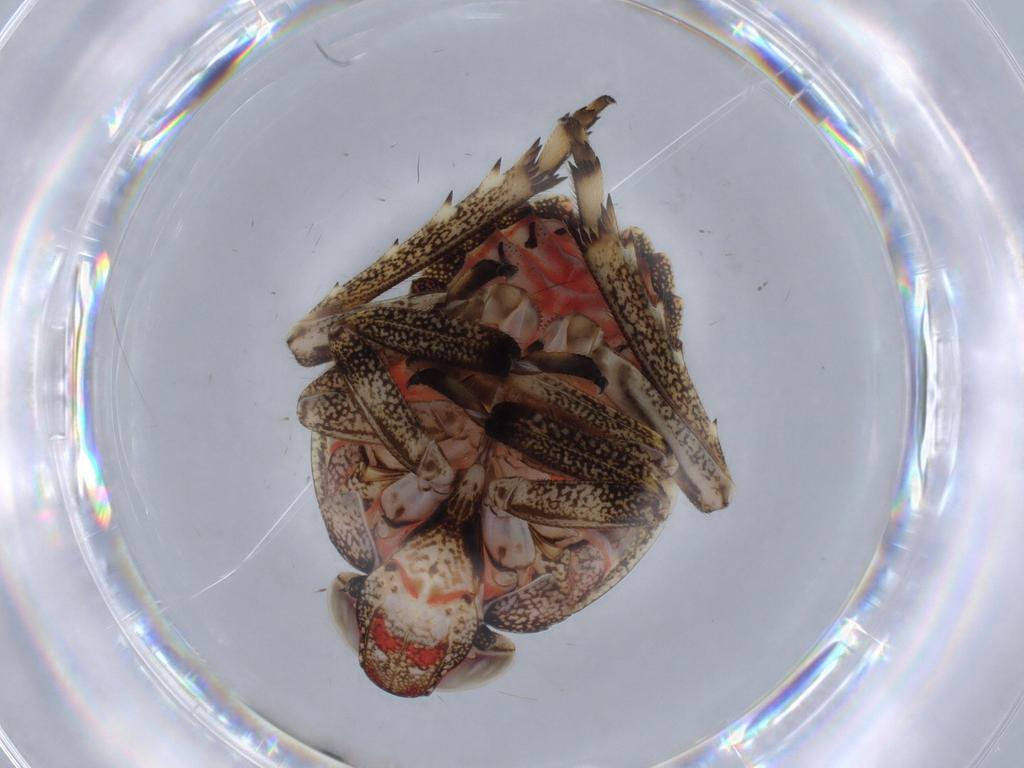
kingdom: Animalia
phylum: Arthropoda
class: Insecta
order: Hemiptera
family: Issidae
